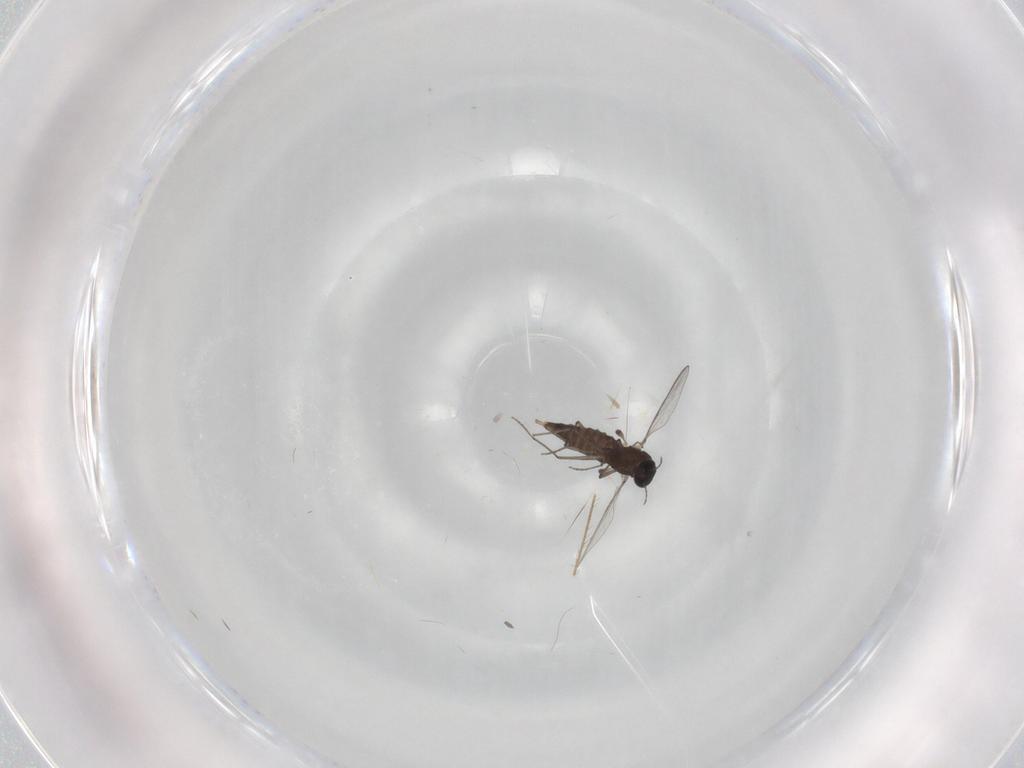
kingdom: Animalia
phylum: Arthropoda
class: Insecta
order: Diptera
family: Chironomidae
